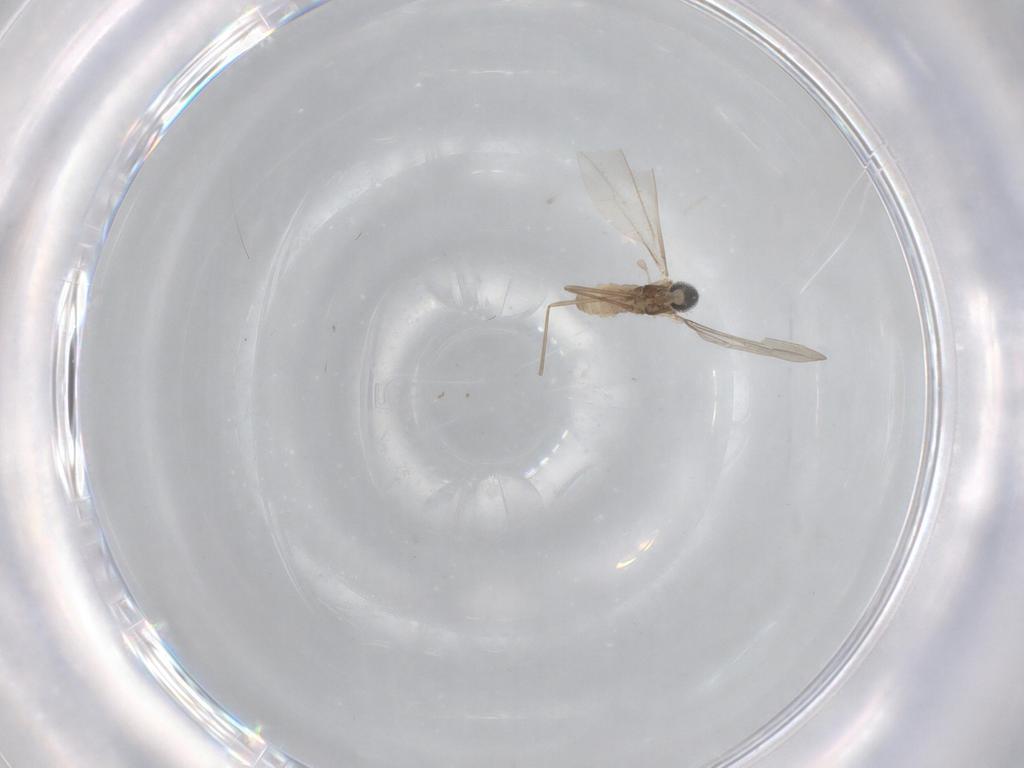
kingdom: Animalia
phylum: Arthropoda
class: Insecta
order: Diptera
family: Cecidomyiidae
